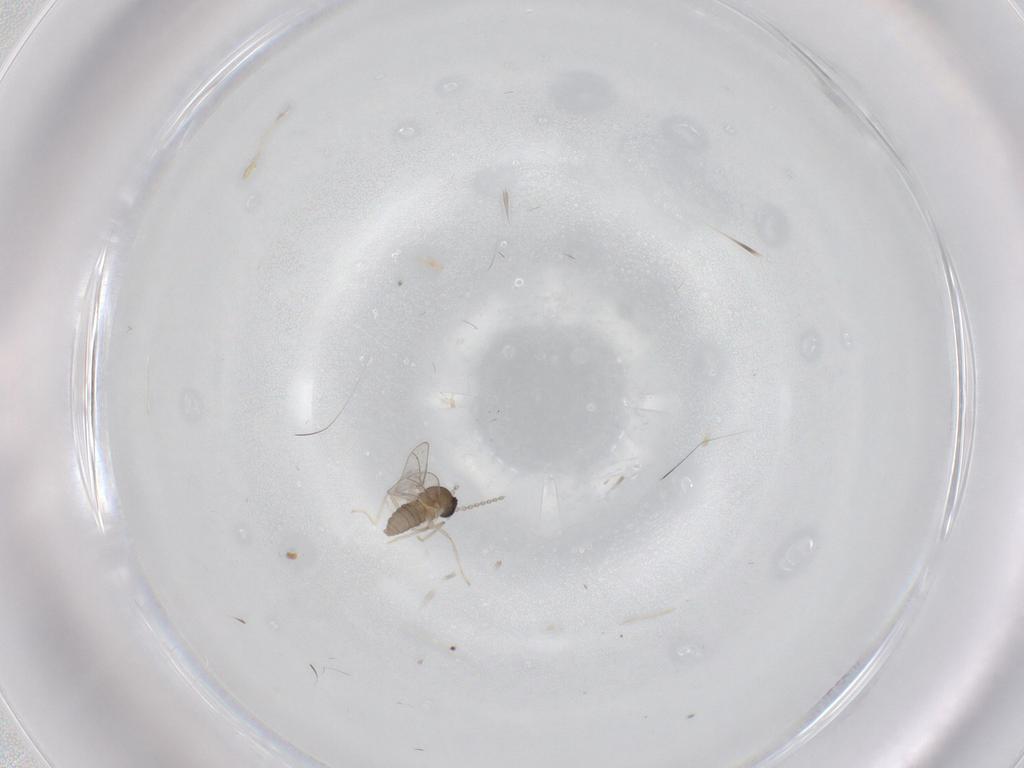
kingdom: Animalia
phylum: Arthropoda
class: Insecta
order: Diptera
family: Cecidomyiidae
